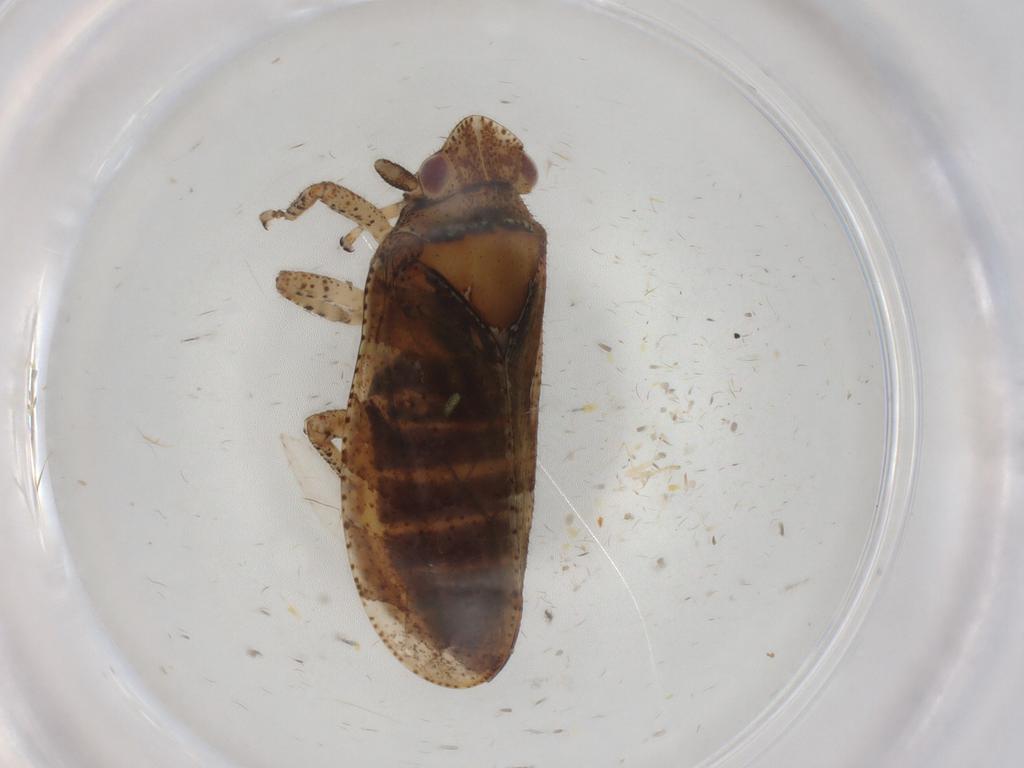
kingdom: Animalia
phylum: Arthropoda
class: Insecta
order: Hemiptera
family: Tettigometridae
